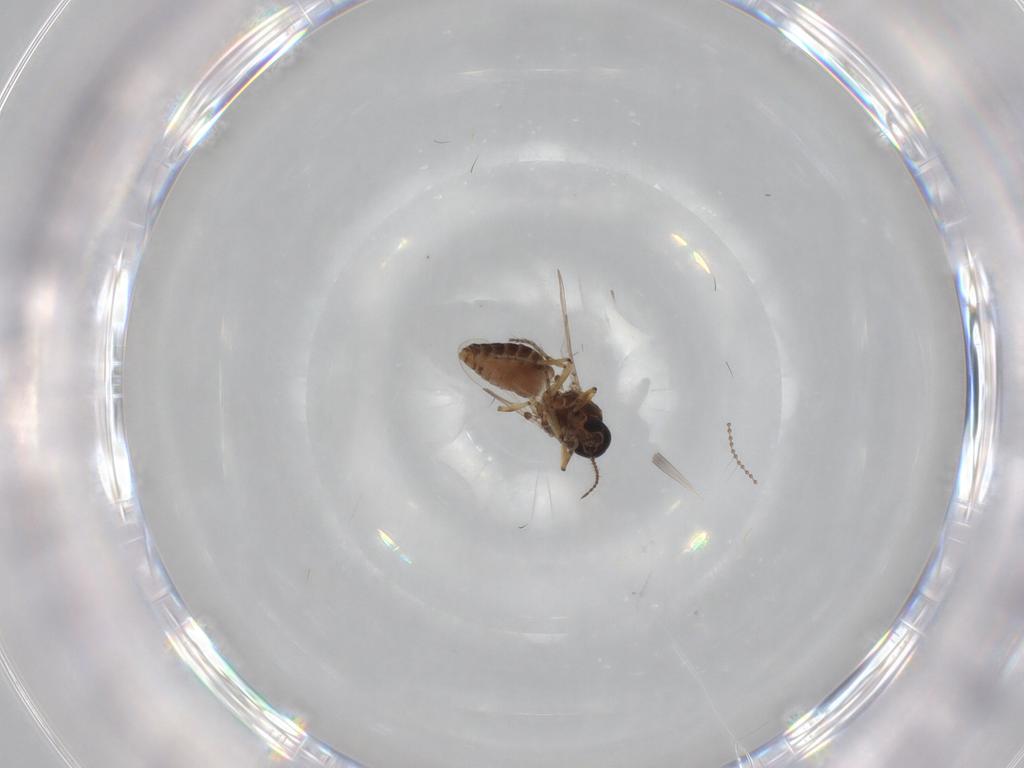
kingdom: Animalia
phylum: Arthropoda
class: Insecta
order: Diptera
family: Ceratopogonidae
